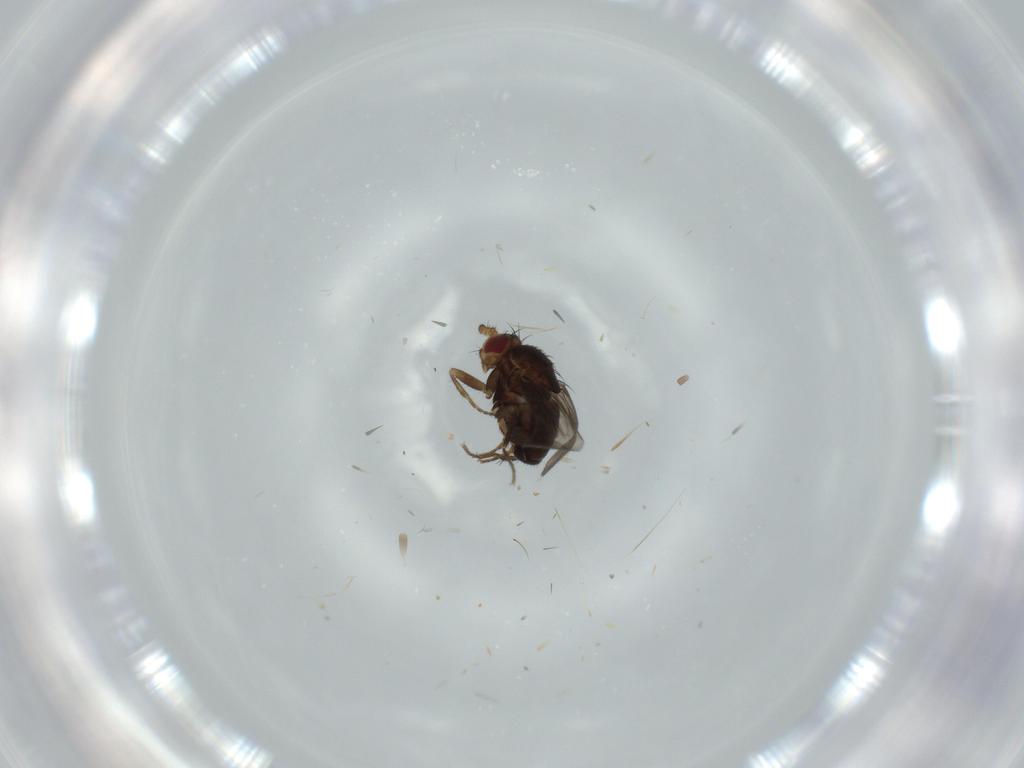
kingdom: Animalia
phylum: Arthropoda
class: Insecta
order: Diptera
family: Sphaeroceridae
